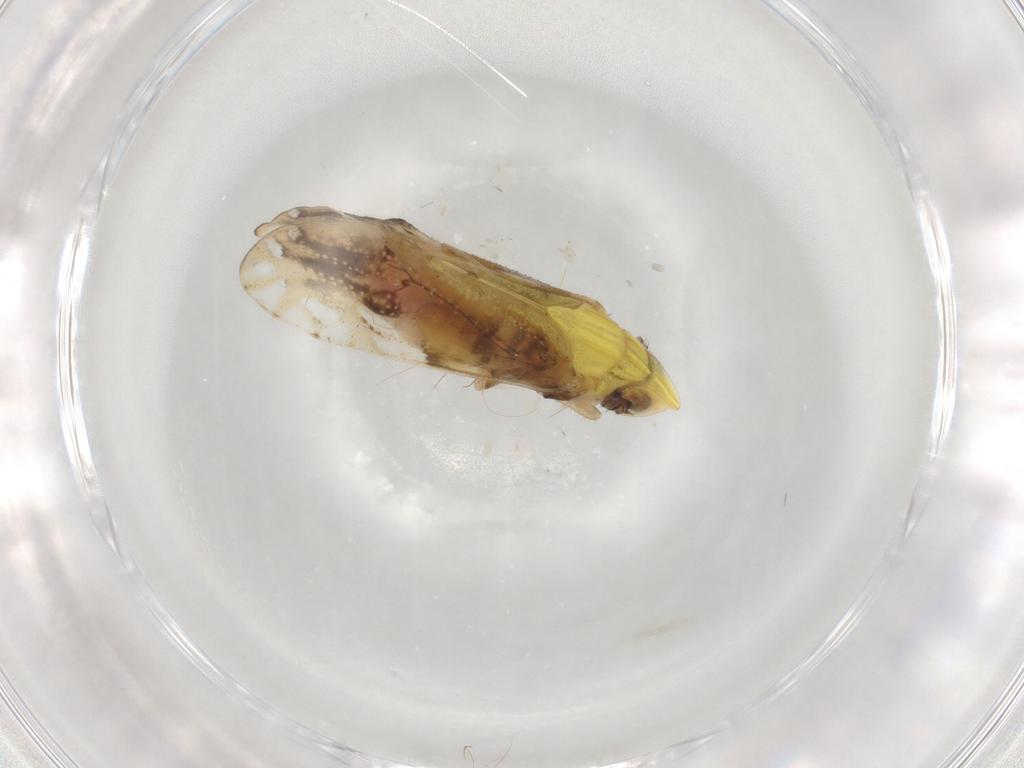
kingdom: Animalia
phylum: Arthropoda
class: Insecta
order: Hemiptera
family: Delphacidae
